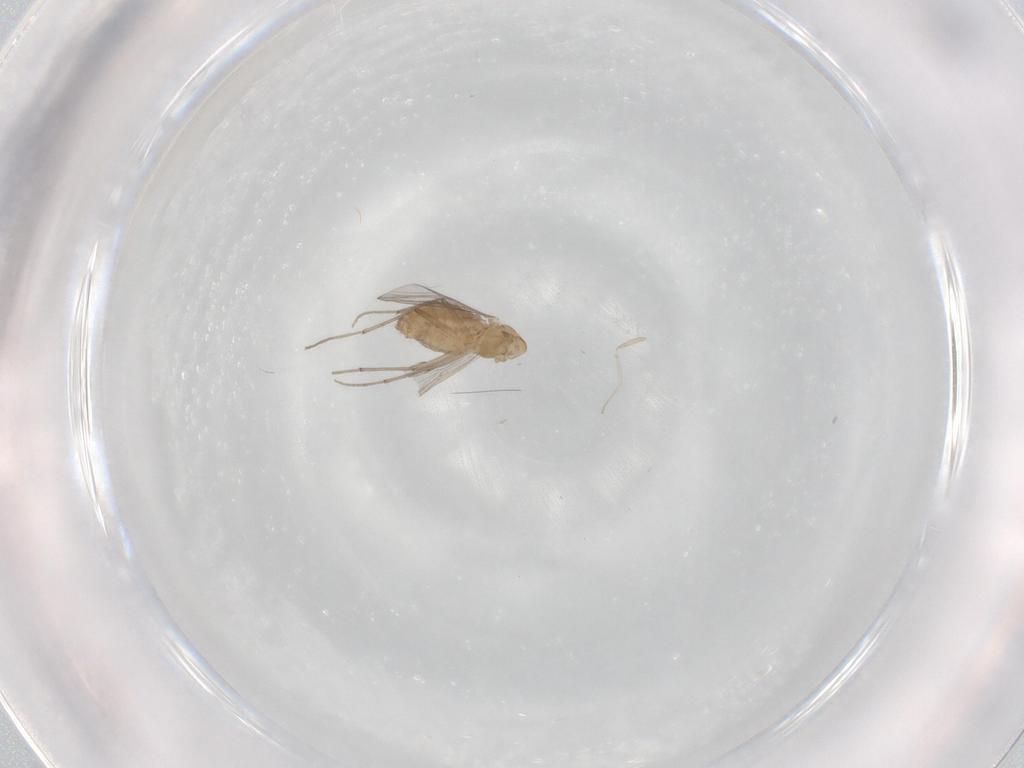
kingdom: Animalia
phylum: Arthropoda
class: Insecta
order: Diptera
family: Chironomidae
